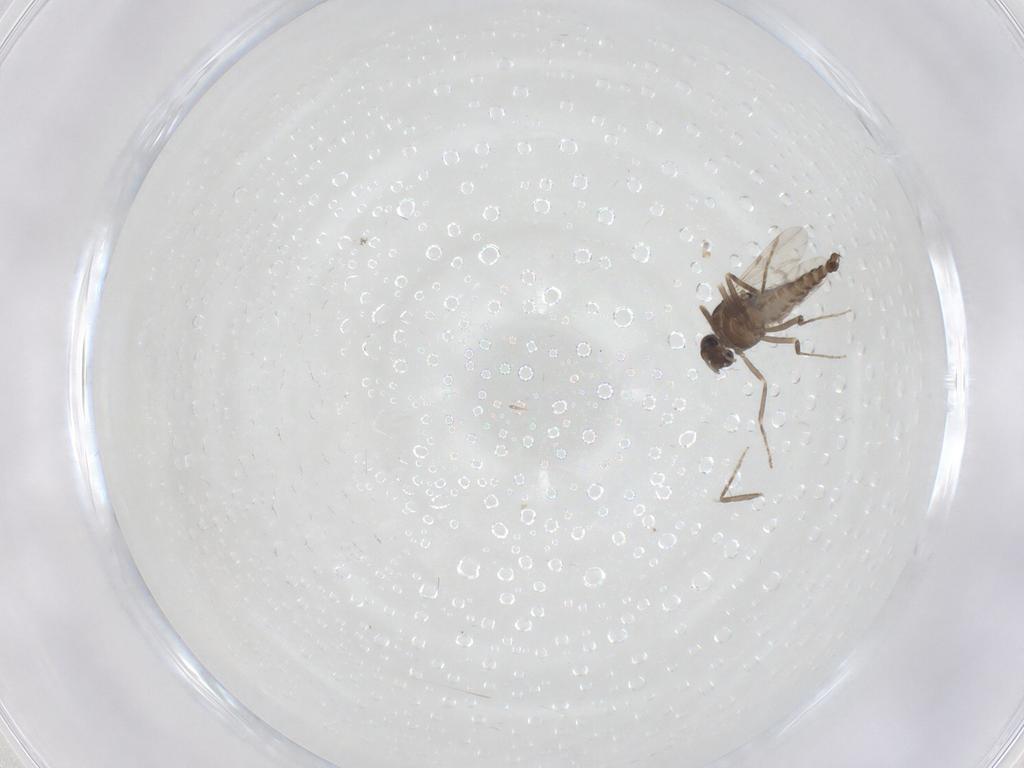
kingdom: Animalia
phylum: Arthropoda
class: Insecta
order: Diptera
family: Ceratopogonidae
